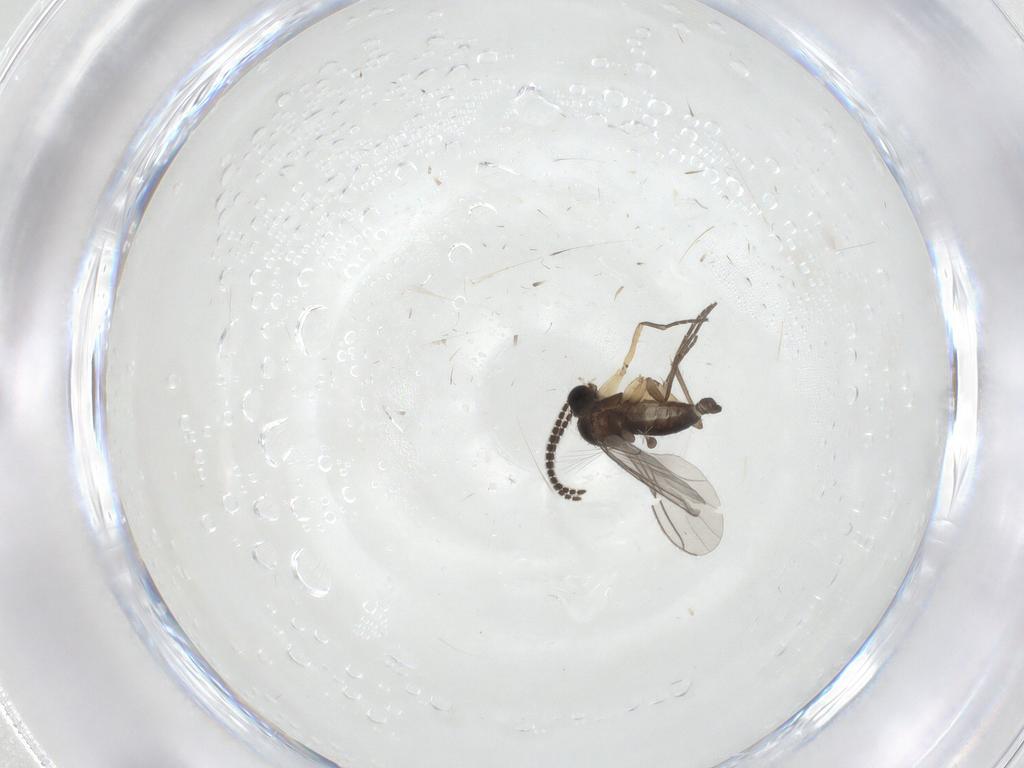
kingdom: Animalia
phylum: Arthropoda
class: Insecta
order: Diptera
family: Sciaridae
